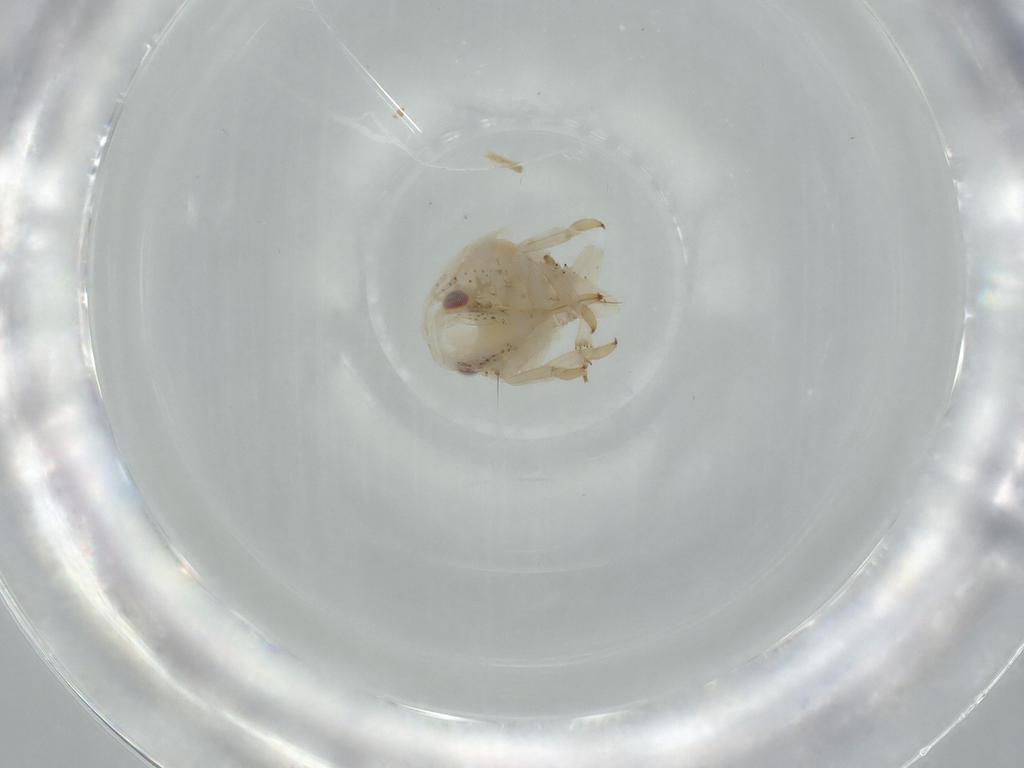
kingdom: Animalia
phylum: Arthropoda
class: Insecta
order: Hemiptera
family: Acanaloniidae
